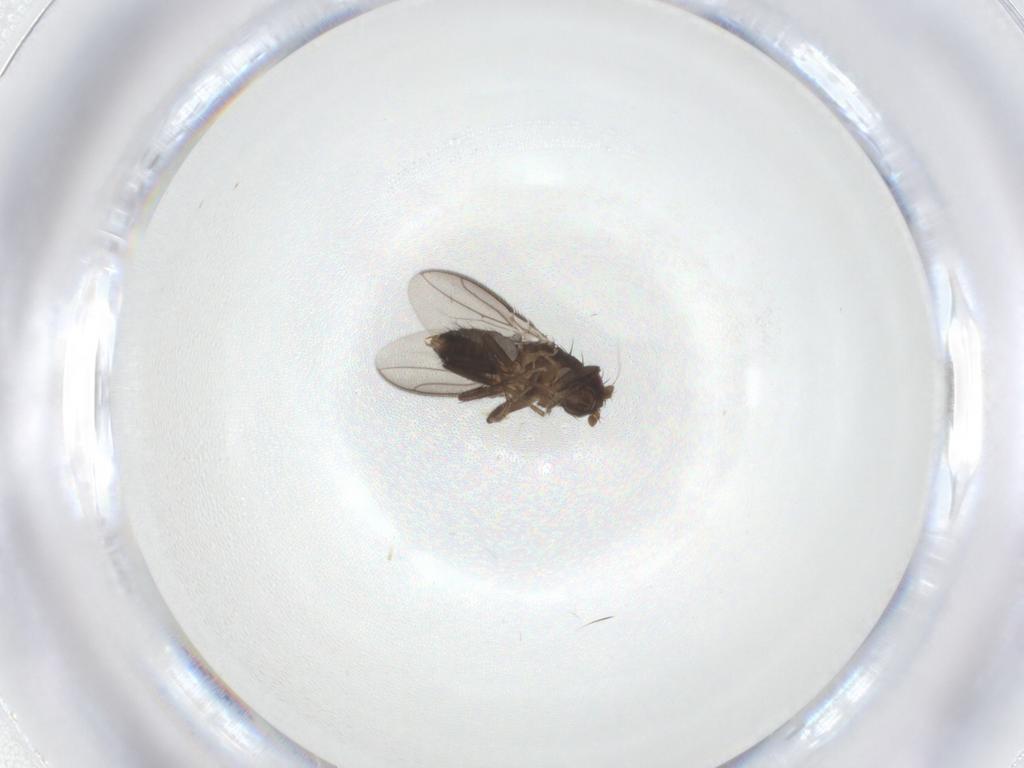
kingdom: Animalia
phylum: Arthropoda
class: Insecta
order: Diptera
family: Sphaeroceridae
